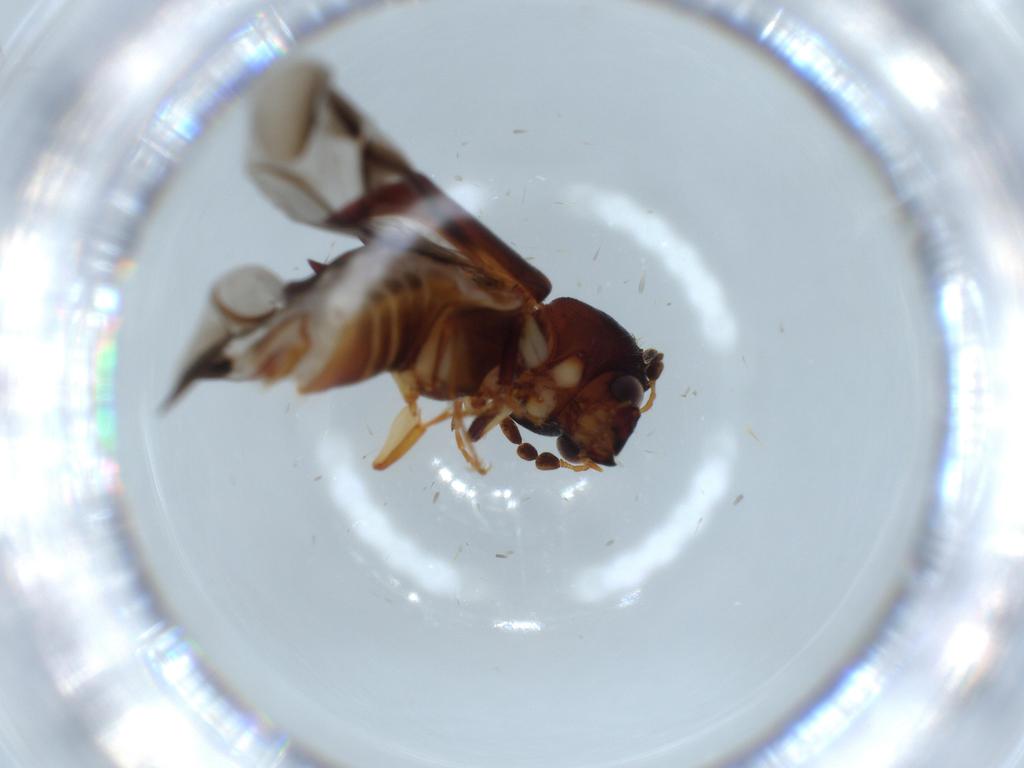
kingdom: Animalia
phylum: Arthropoda
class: Insecta
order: Coleoptera
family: Bostrichidae
